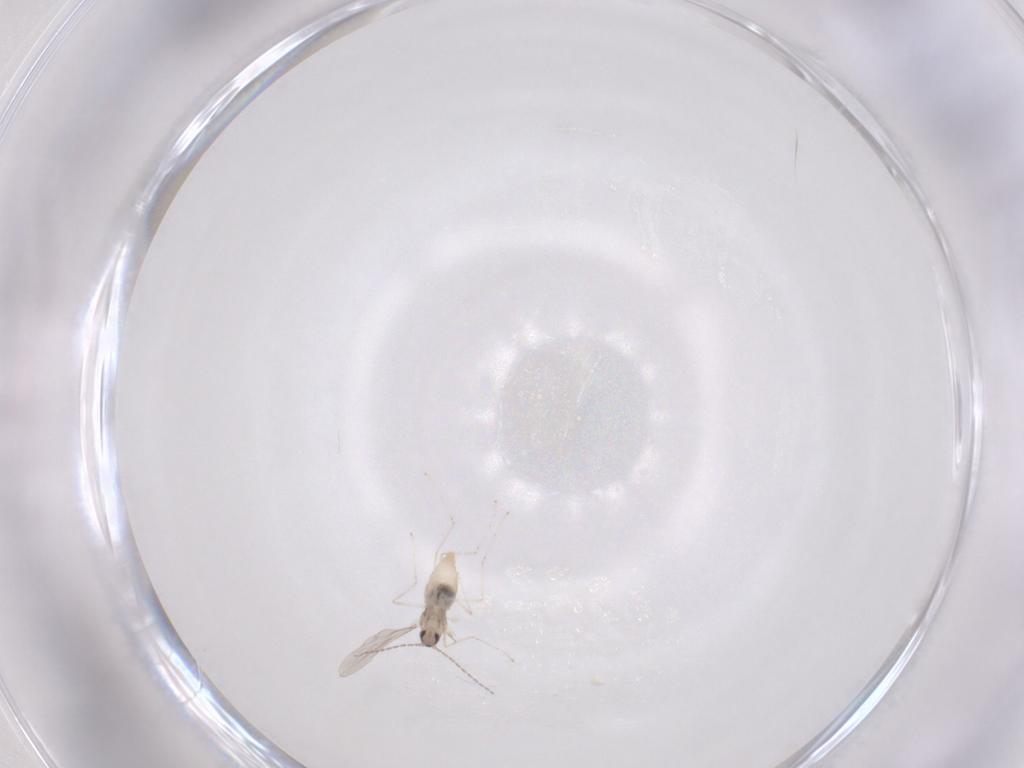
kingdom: Animalia
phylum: Arthropoda
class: Insecta
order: Diptera
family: Cecidomyiidae
